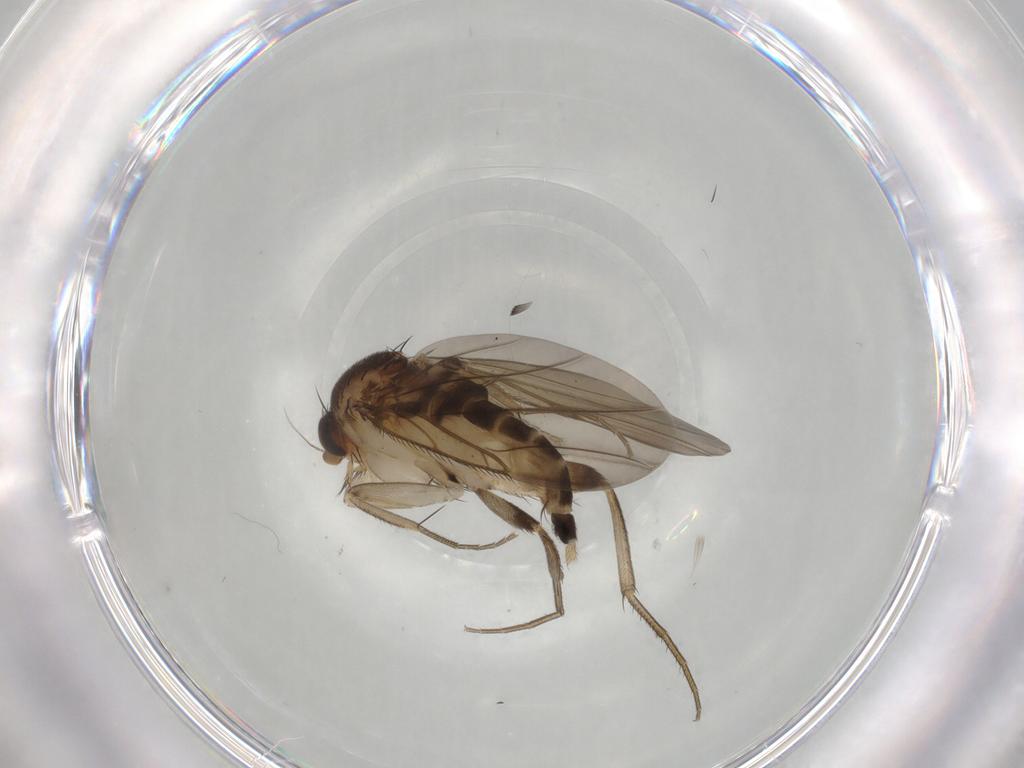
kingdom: Animalia
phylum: Arthropoda
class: Insecta
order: Diptera
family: Phoridae
